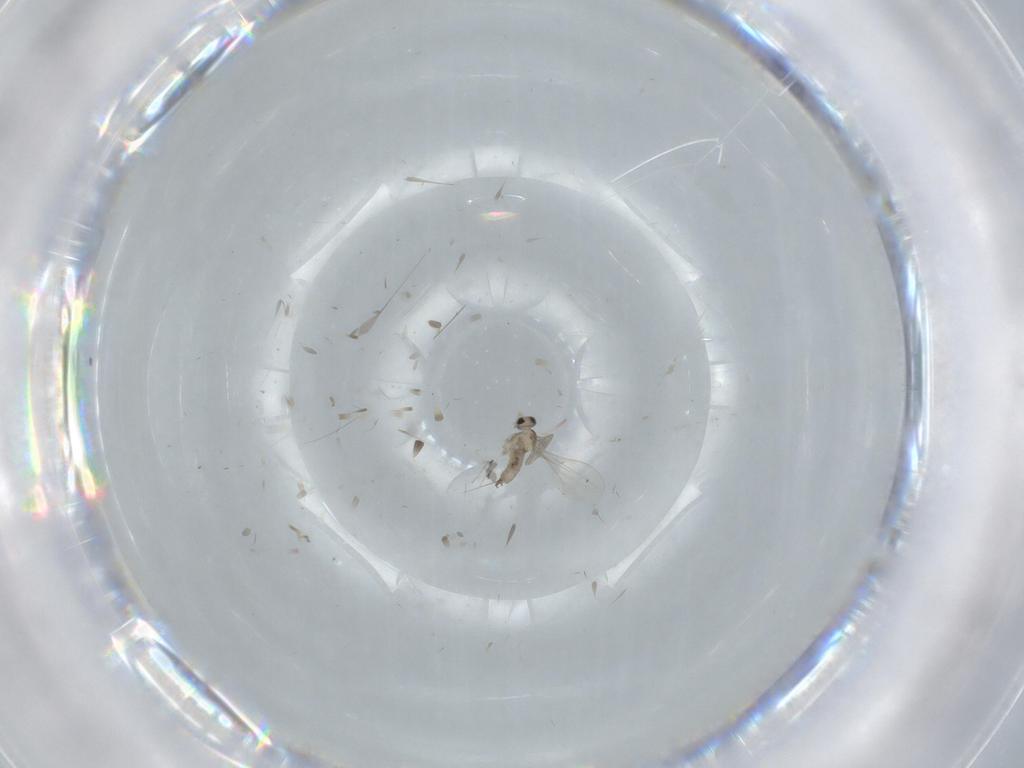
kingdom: Animalia
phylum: Arthropoda
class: Insecta
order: Diptera
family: Cecidomyiidae
